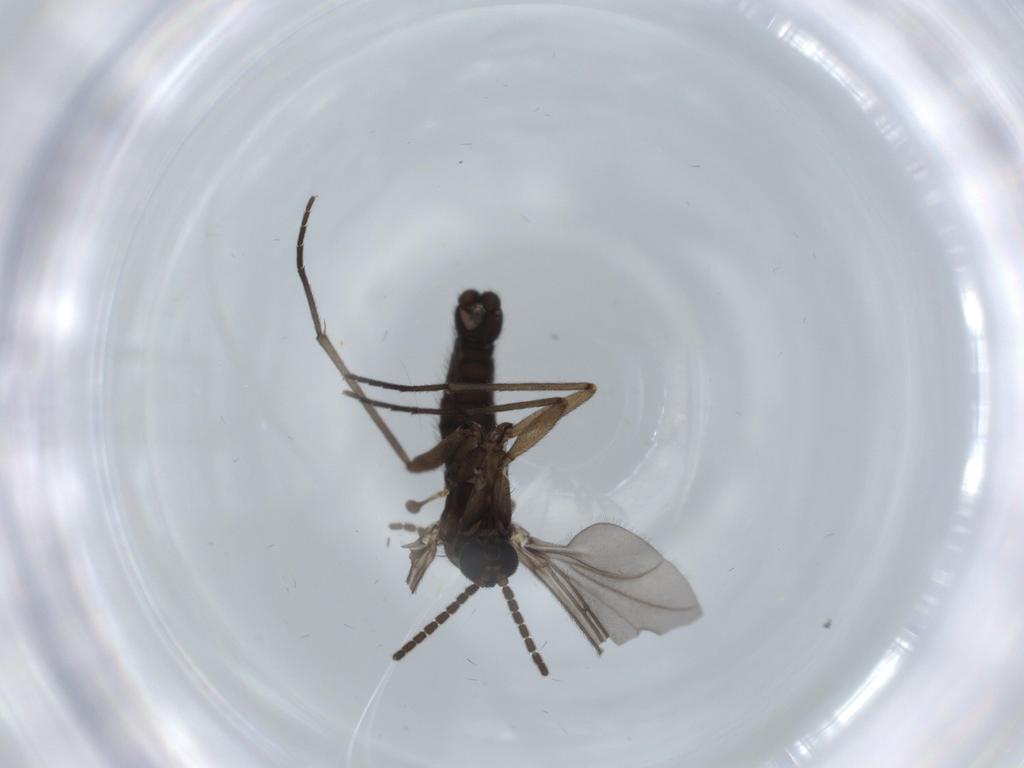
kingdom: Animalia
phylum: Arthropoda
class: Insecta
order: Diptera
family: Sciaridae
